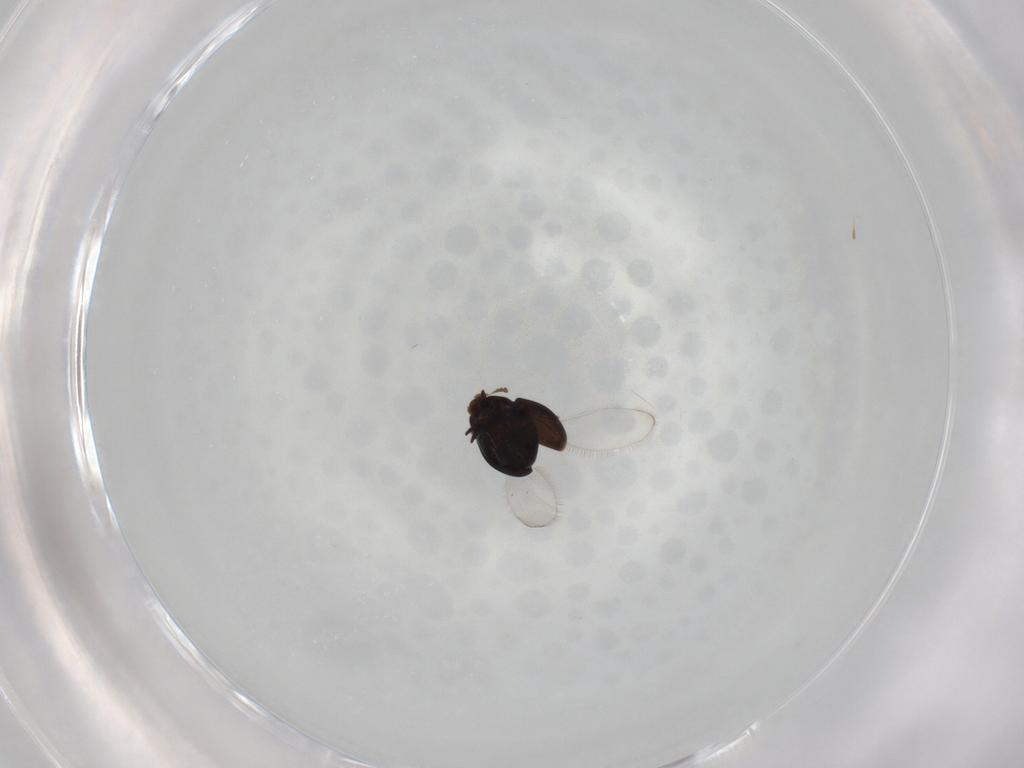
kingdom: Animalia
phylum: Arthropoda
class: Insecta
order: Coleoptera
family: Corylophidae
